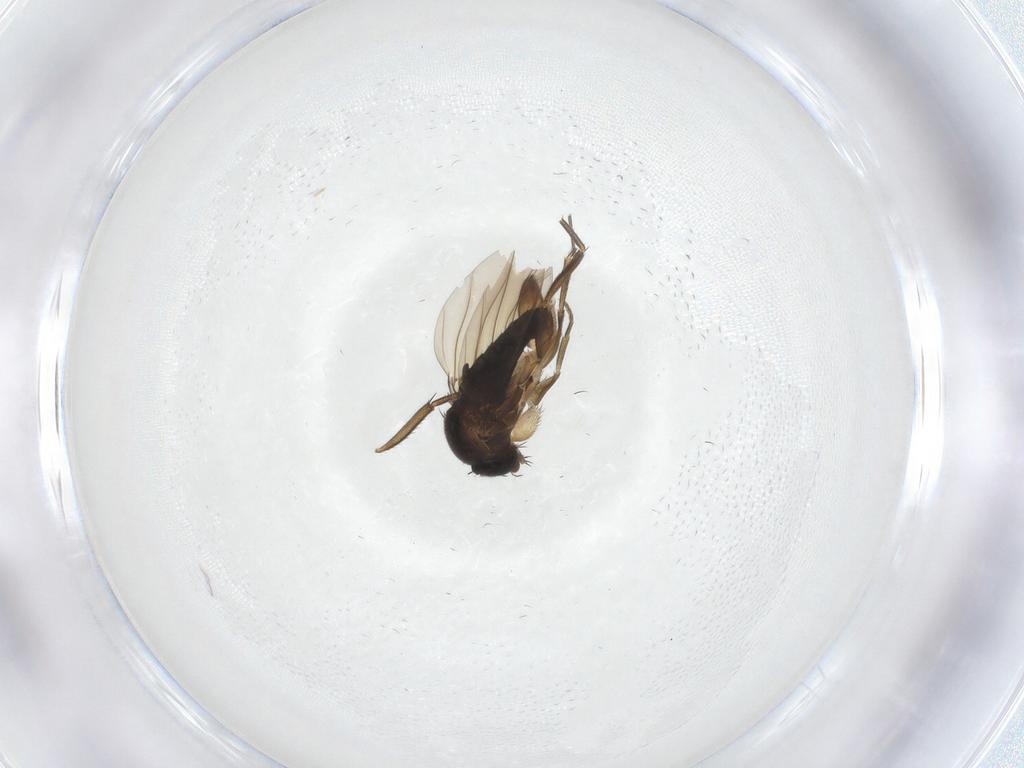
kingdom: Animalia
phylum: Arthropoda
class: Insecta
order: Diptera
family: Phoridae
